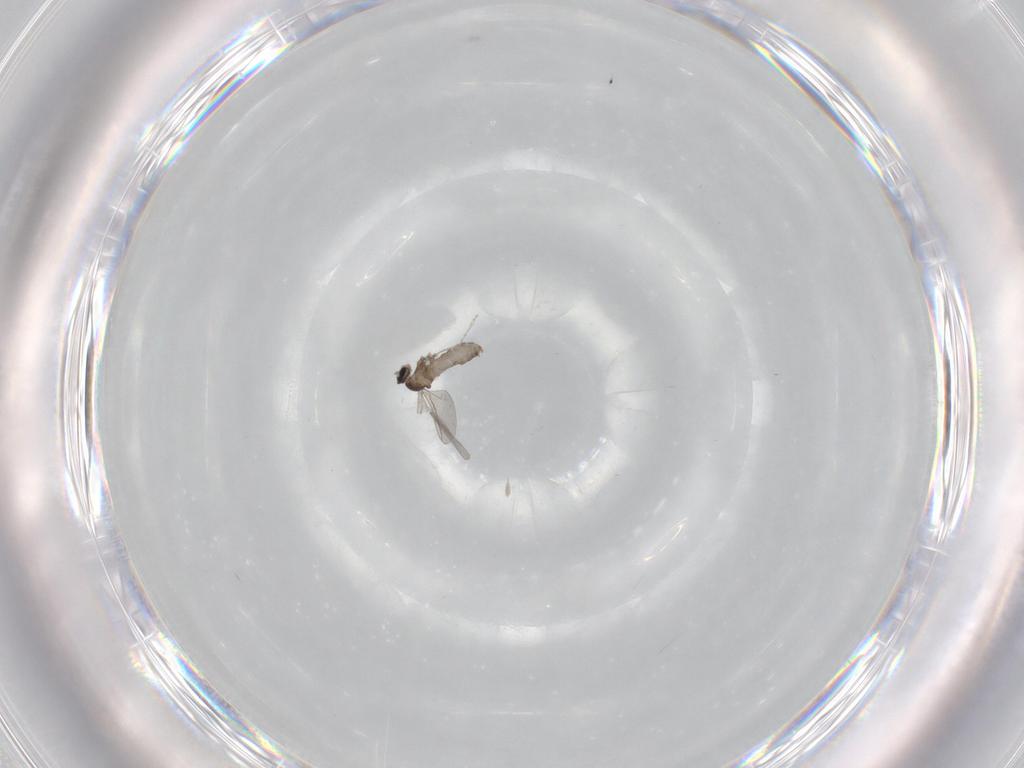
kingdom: Animalia
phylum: Arthropoda
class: Insecta
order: Diptera
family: Cecidomyiidae
